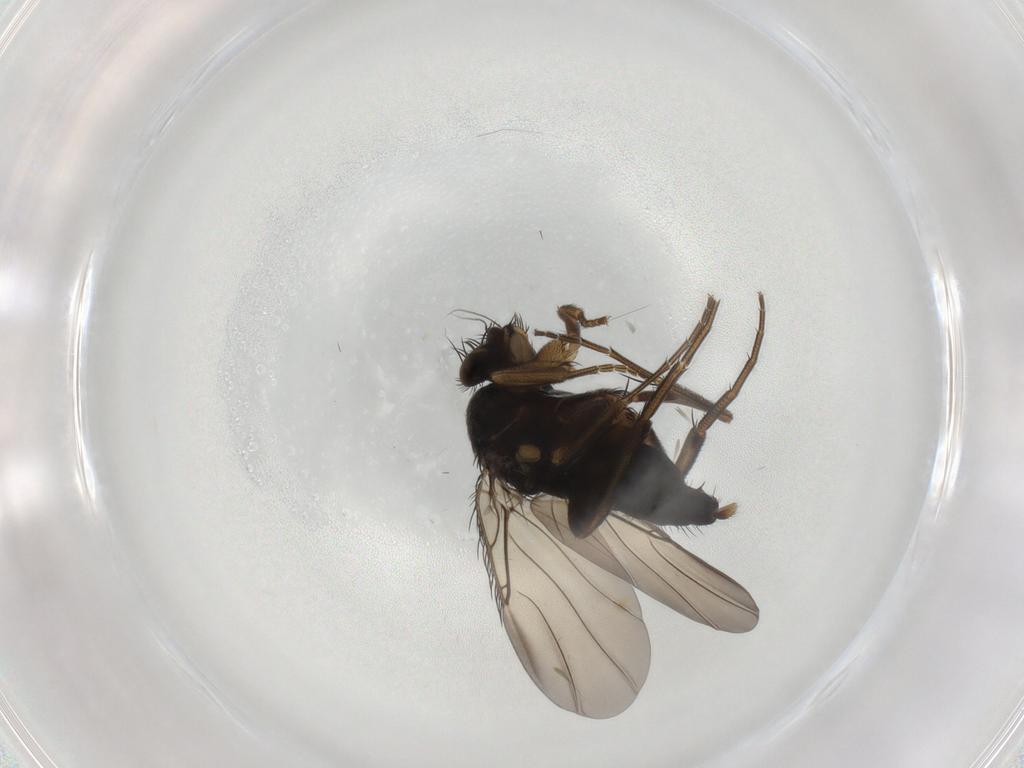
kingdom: Animalia
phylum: Arthropoda
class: Insecta
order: Diptera
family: Phoridae
